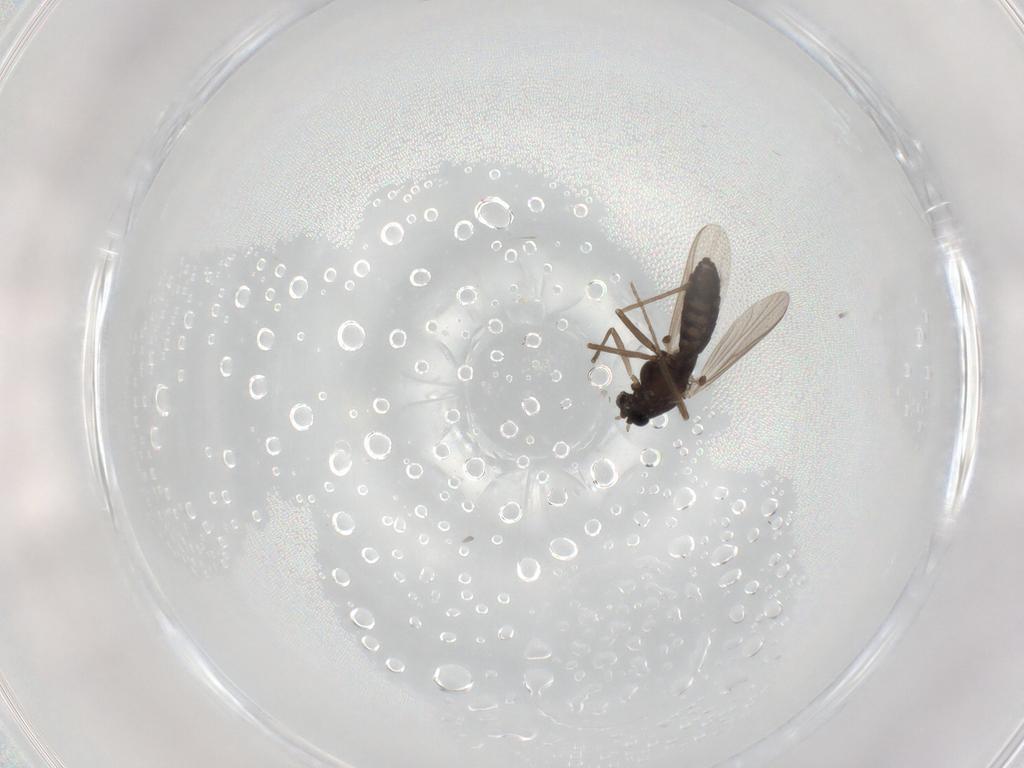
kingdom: Animalia
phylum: Arthropoda
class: Insecta
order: Diptera
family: Chironomidae
